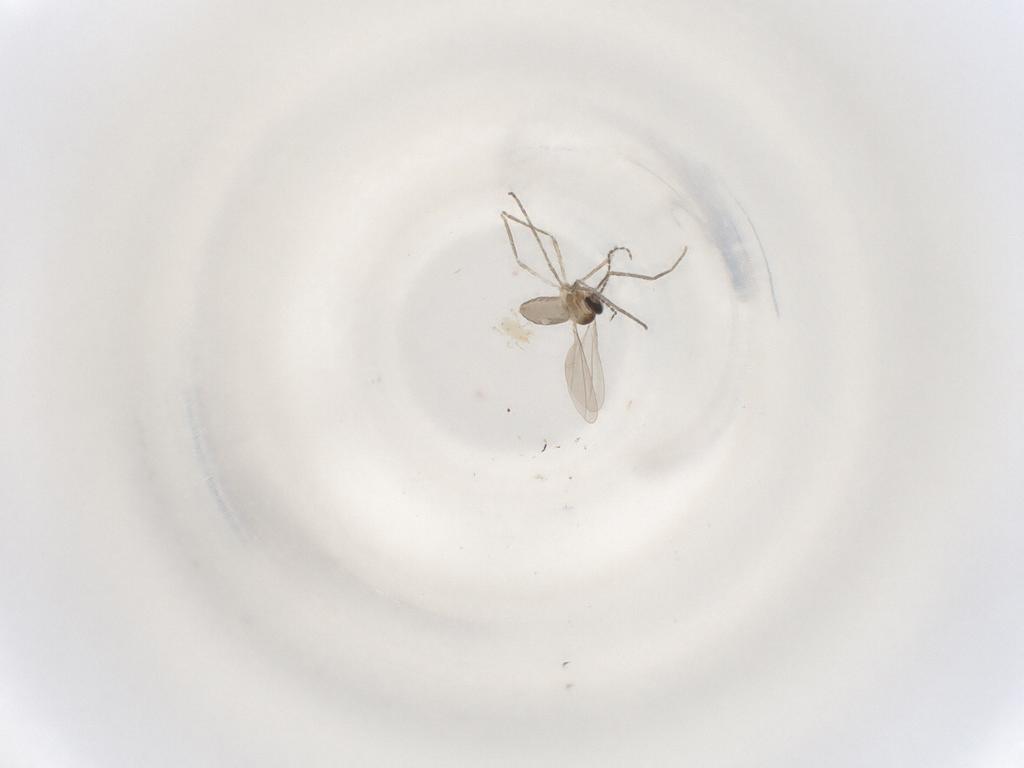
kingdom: Animalia
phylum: Arthropoda
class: Insecta
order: Diptera
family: Cecidomyiidae
